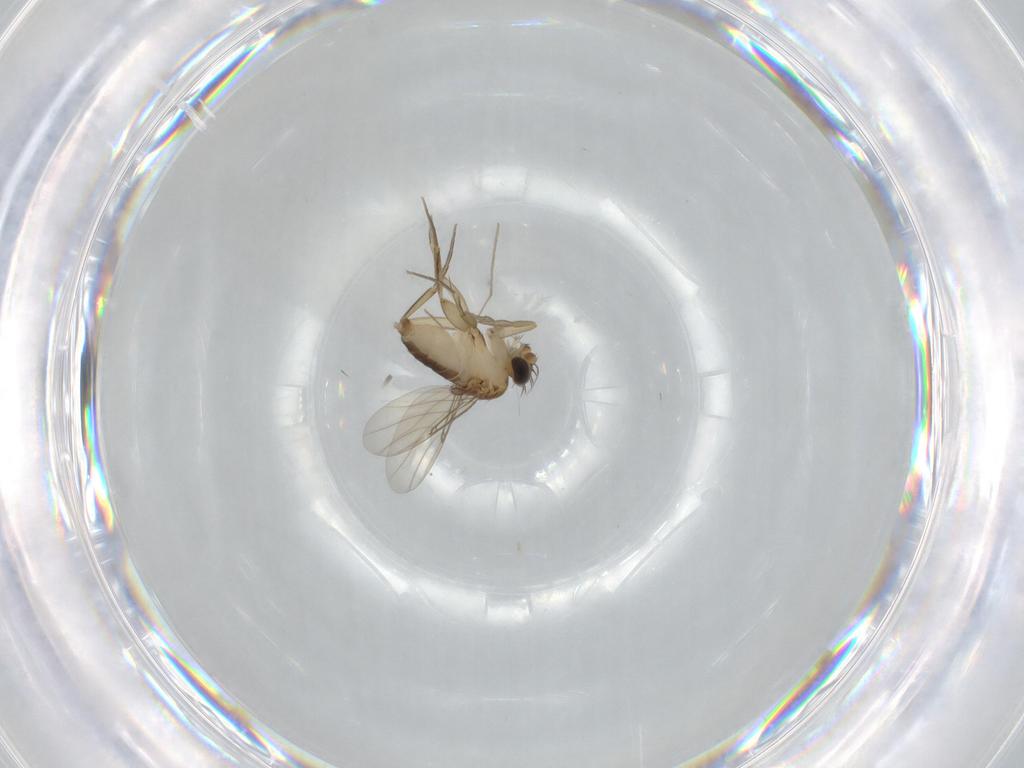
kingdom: Animalia
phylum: Arthropoda
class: Insecta
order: Diptera
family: Phoridae
